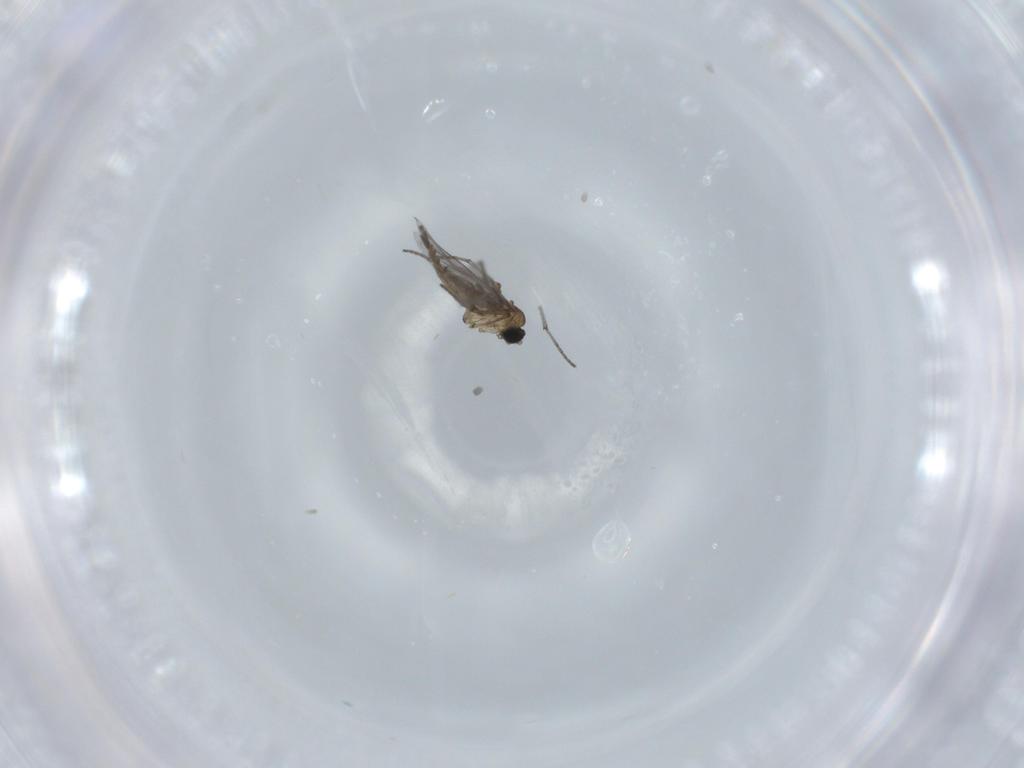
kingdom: Animalia
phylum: Arthropoda
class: Insecta
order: Diptera
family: Sciaridae
